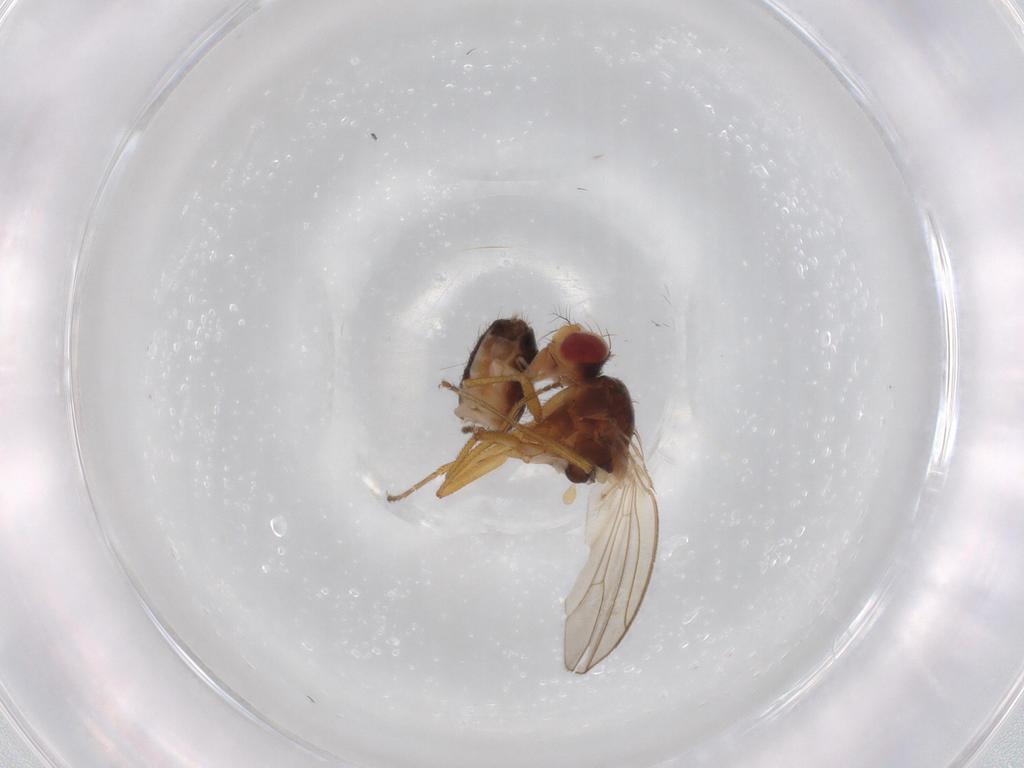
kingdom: Animalia
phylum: Arthropoda
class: Insecta
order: Diptera
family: Drosophilidae
